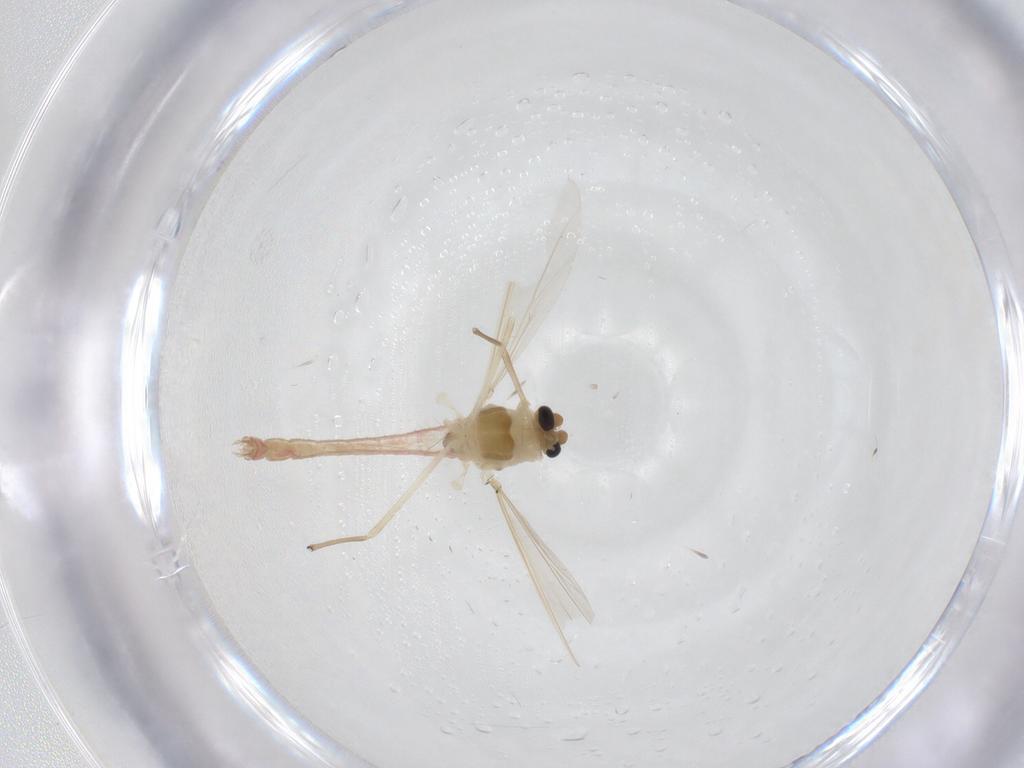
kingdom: Animalia
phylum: Arthropoda
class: Insecta
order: Diptera
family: Chironomidae
